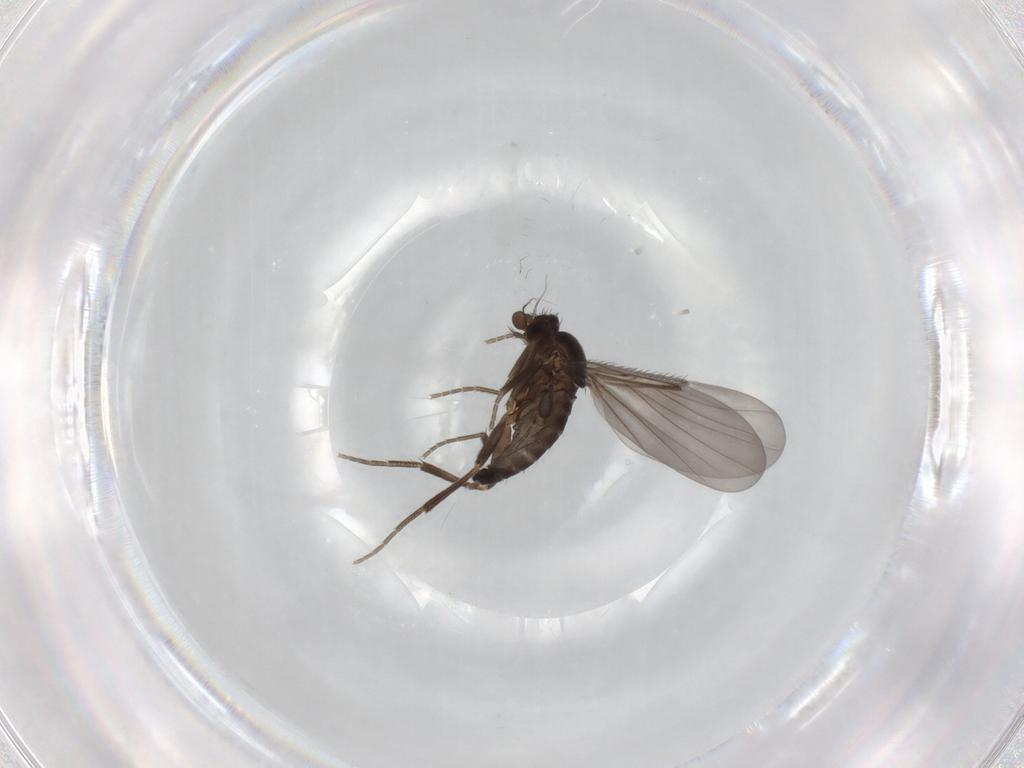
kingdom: Animalia
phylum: Arthropoda
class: Insecta
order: Diptera
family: Phoridae
